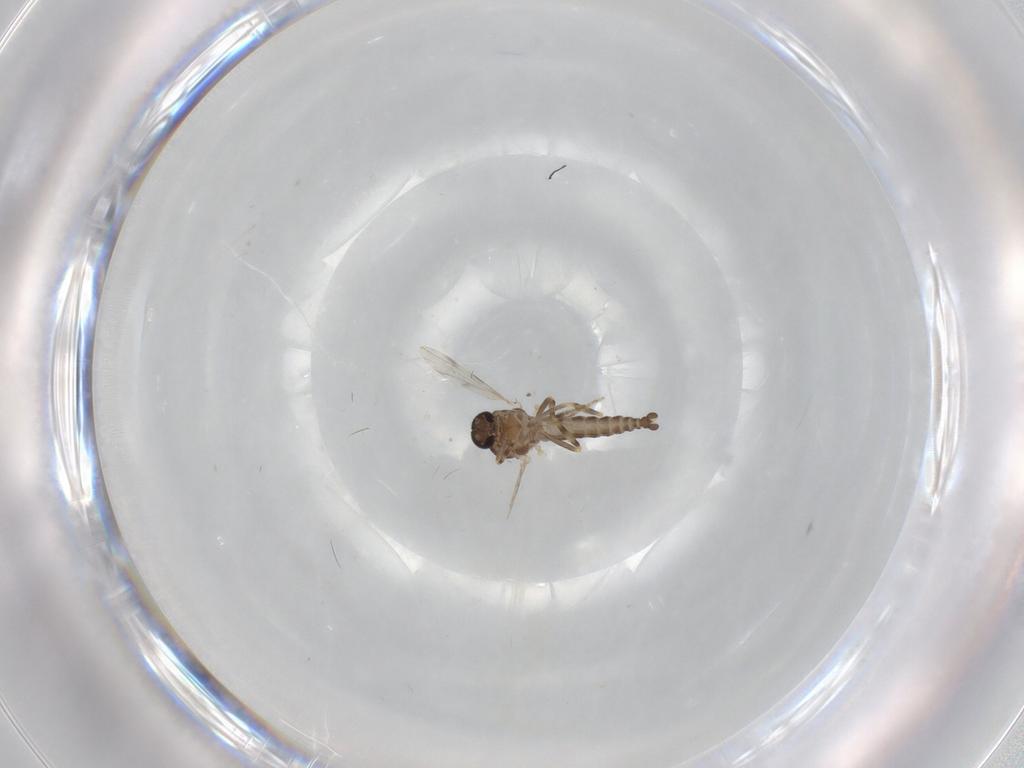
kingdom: Animalia
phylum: Arthropoda
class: Insecta
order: Diptera
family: Ceratopogonidae
